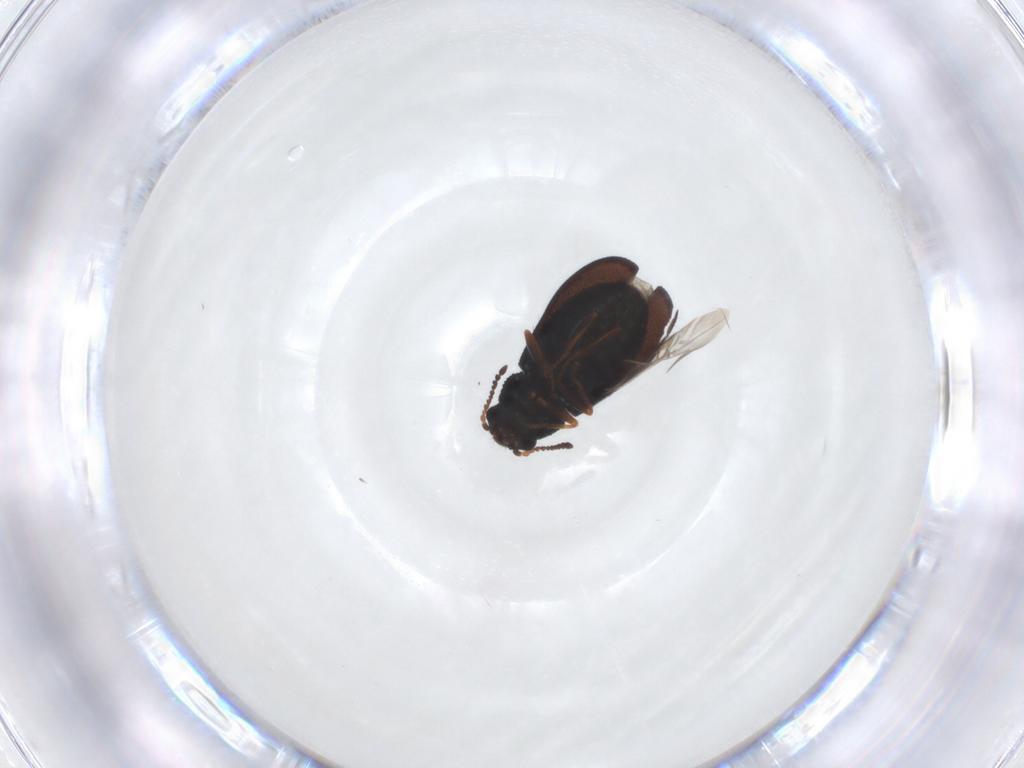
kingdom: Animalia
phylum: Arthropoda
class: Insecta
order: Coleoptera
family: Melyridae
